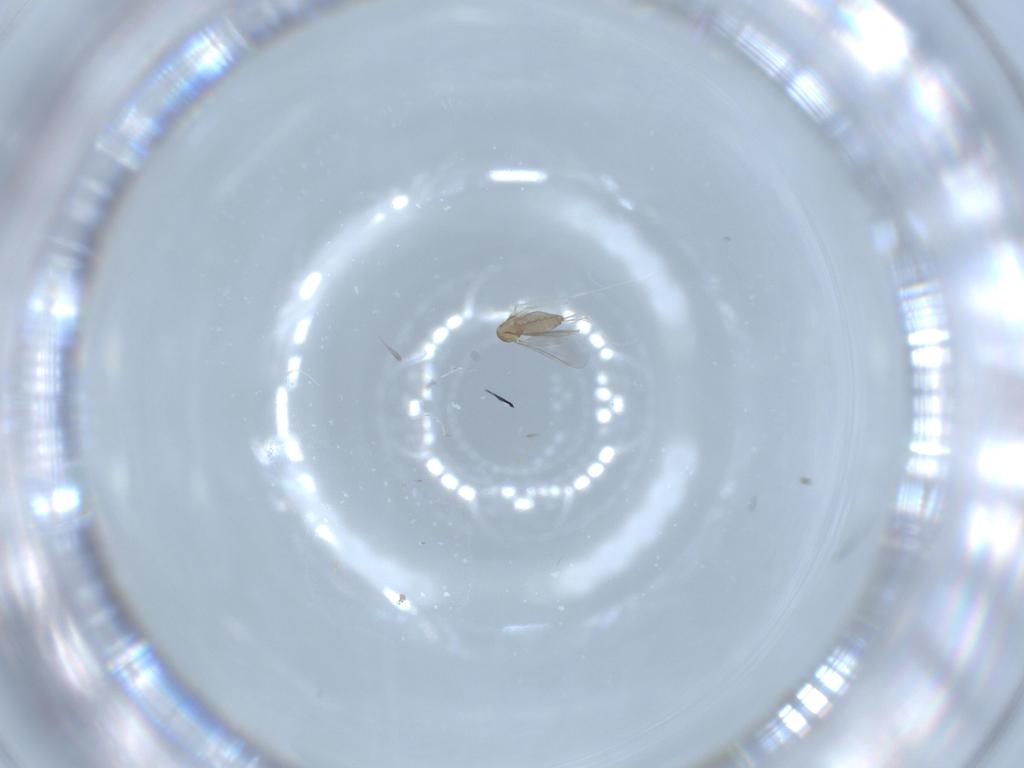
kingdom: Animalia
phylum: Arthropoda
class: Insecta
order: Diptera
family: Cecidomyiidae
